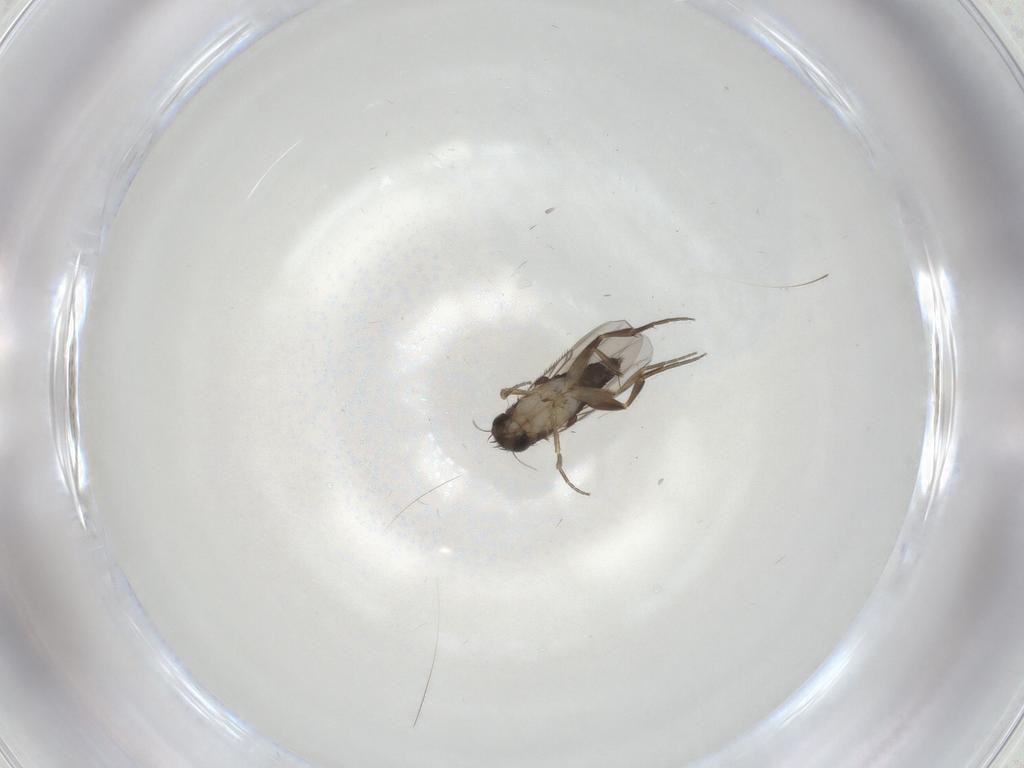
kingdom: Animalia
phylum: Arthropoda
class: Insecta
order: Diptera
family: Phoridae
